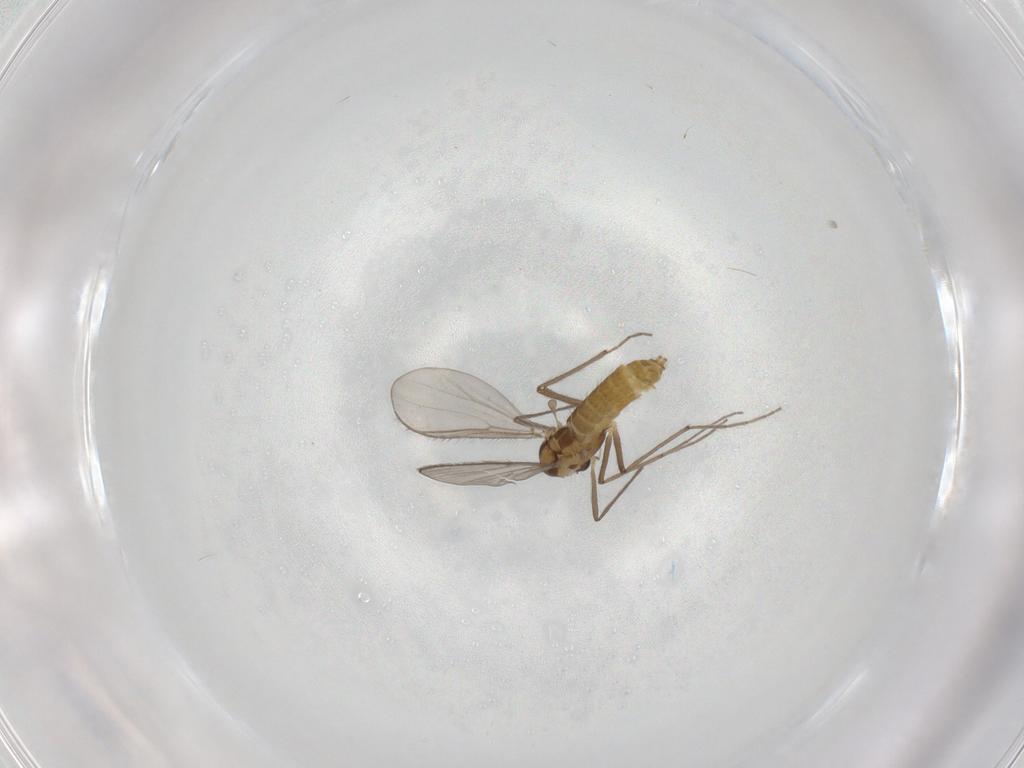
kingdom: Animalia
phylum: Arthropoda
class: Insecta
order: Diptera
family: Chironomidae
